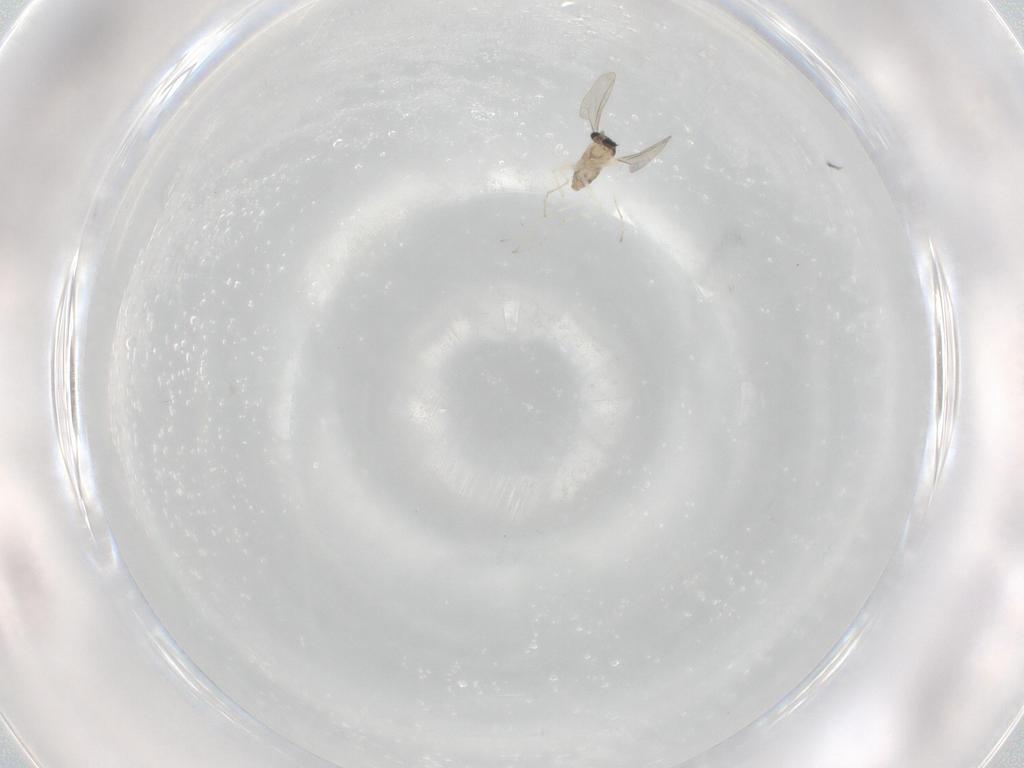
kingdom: Animalia
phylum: Arthropoda
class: Insecta
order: Diptera
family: Cecidomyiidae
